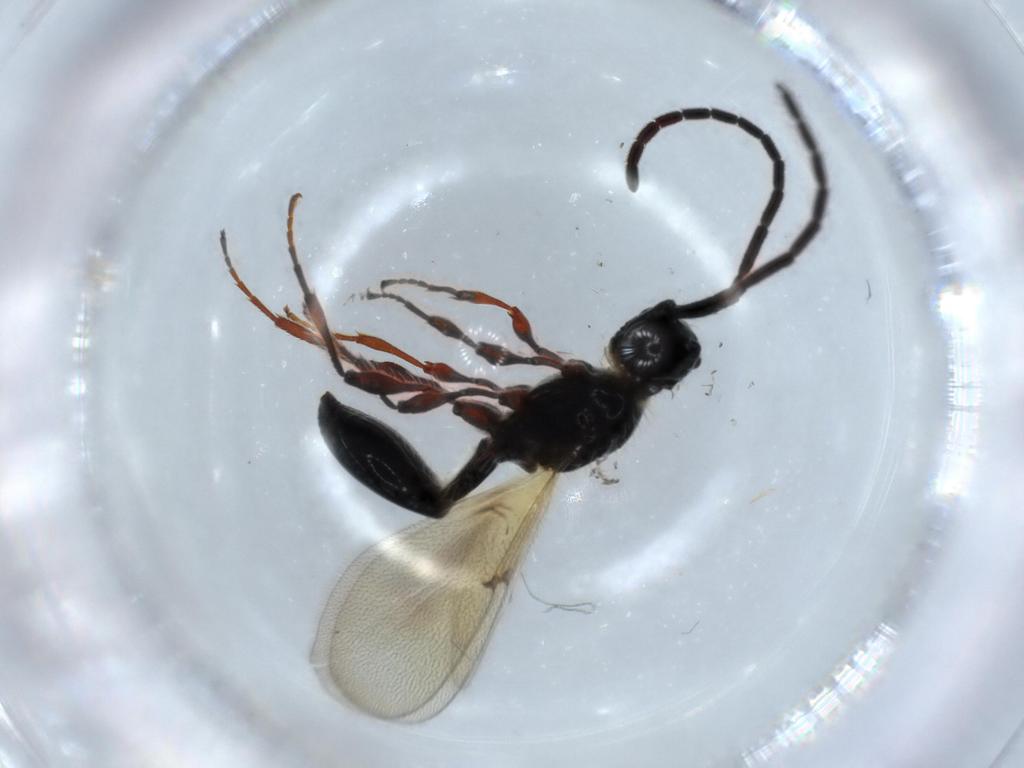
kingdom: Animalia
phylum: Arthropoda
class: Insecta
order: Hymenoptera
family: Diapriidae
